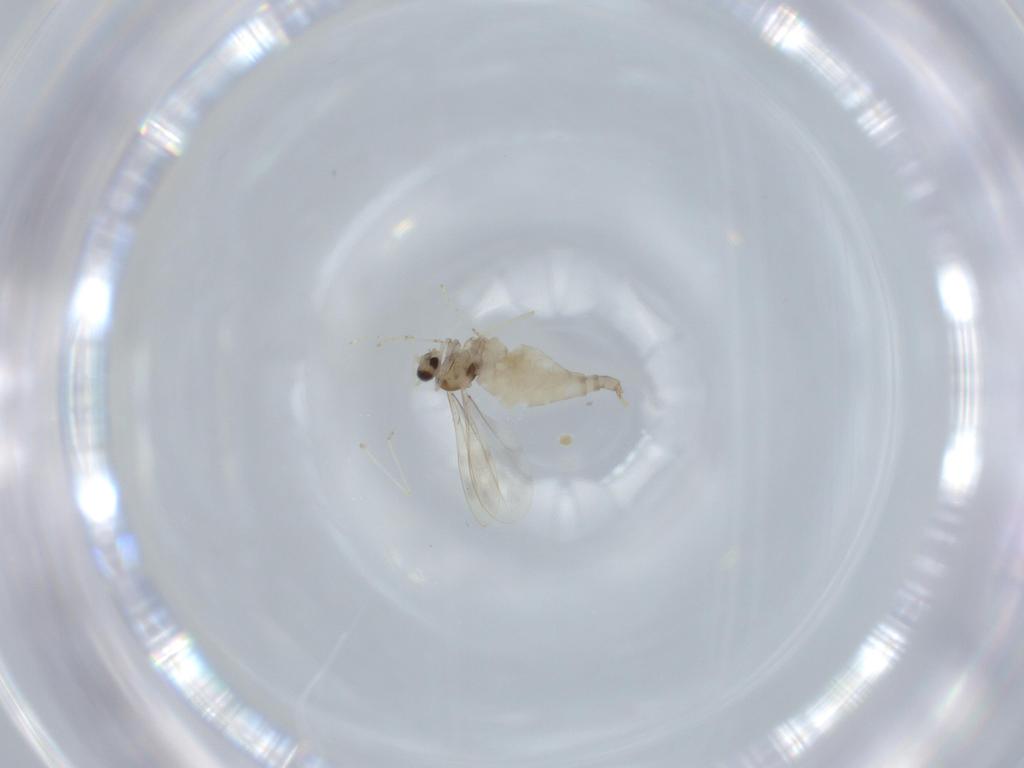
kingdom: Animalia
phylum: Arthropoda
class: Insecta
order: Diptera
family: Cecidomyiidae
